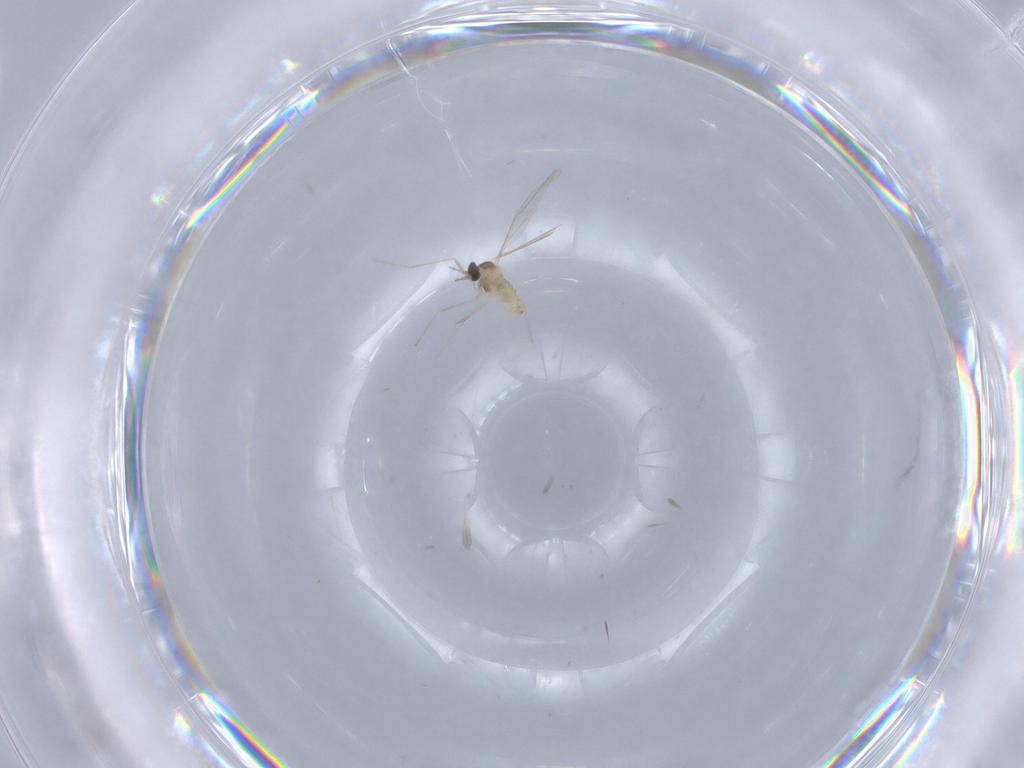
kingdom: Animalia
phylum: Arthropoda
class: Insecta
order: Diptera
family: Cecidomyiidae
